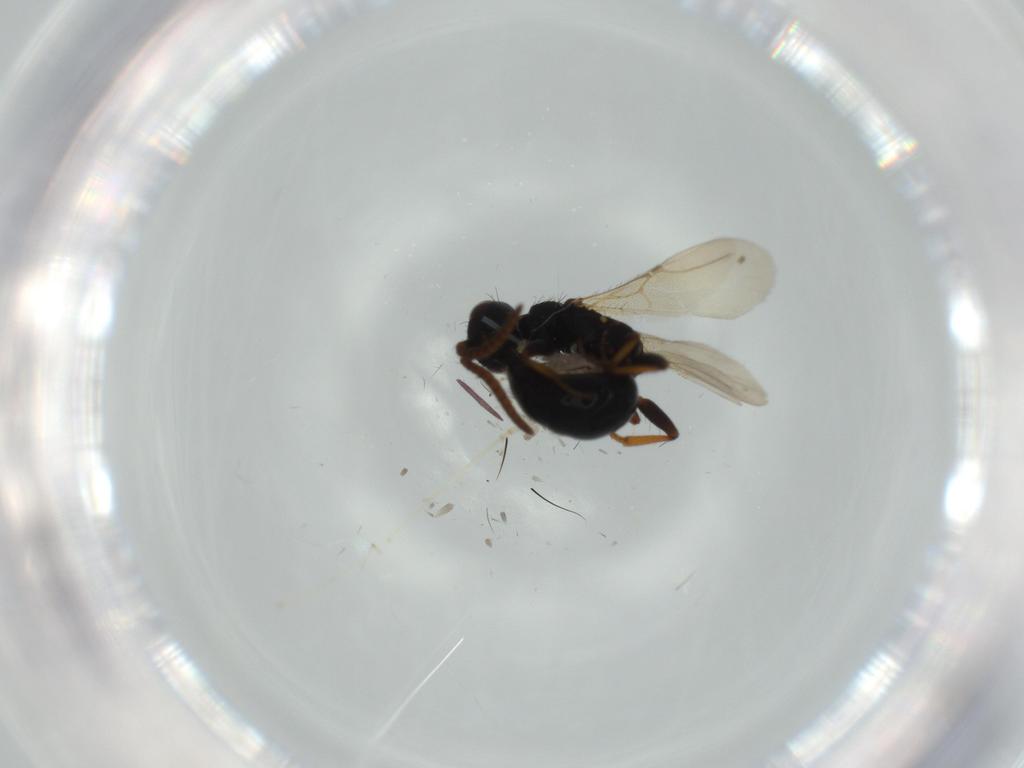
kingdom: Animalia
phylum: Arthropoda
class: Insecta
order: Hymenoptera
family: Bethylidae
